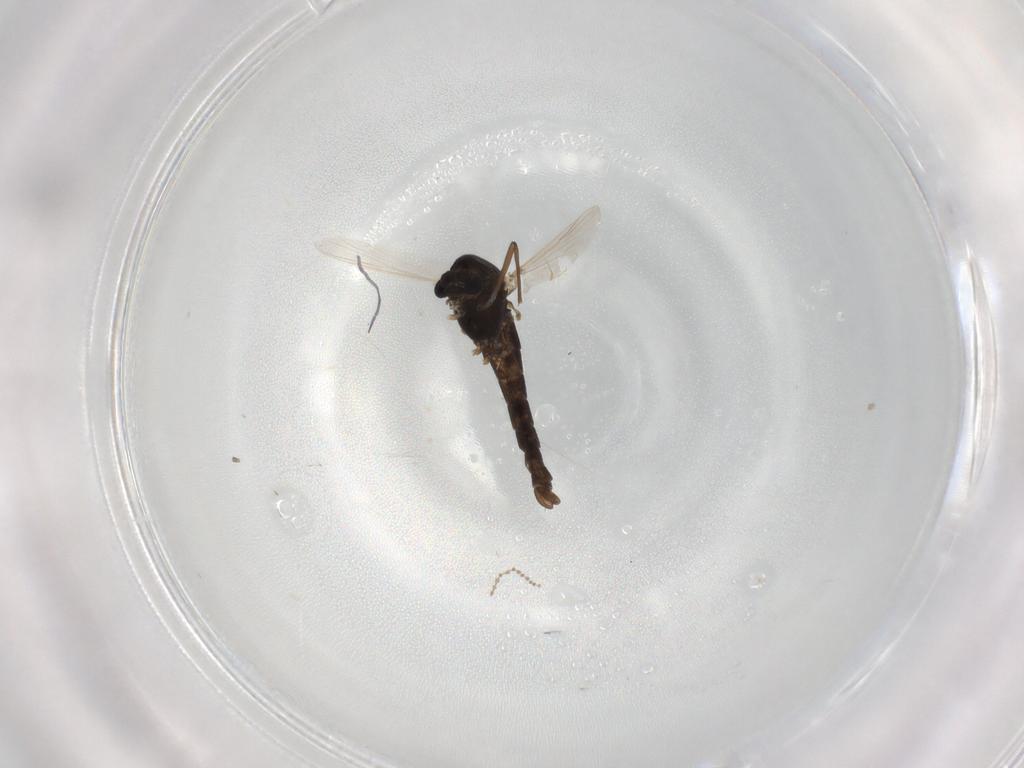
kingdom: Animalia
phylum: Arthropoda
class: Insecta
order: Diptera
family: Chironomidae
